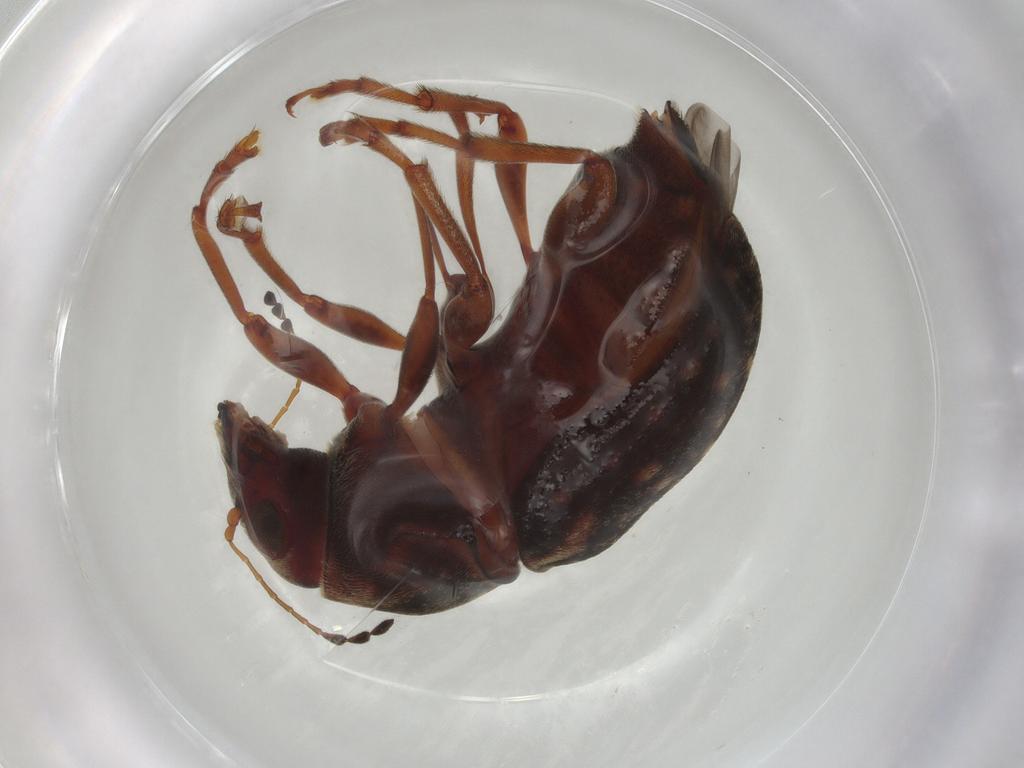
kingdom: Animalia
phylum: Arthropoda
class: Insecta
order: Coleoptera
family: Anthribidae
